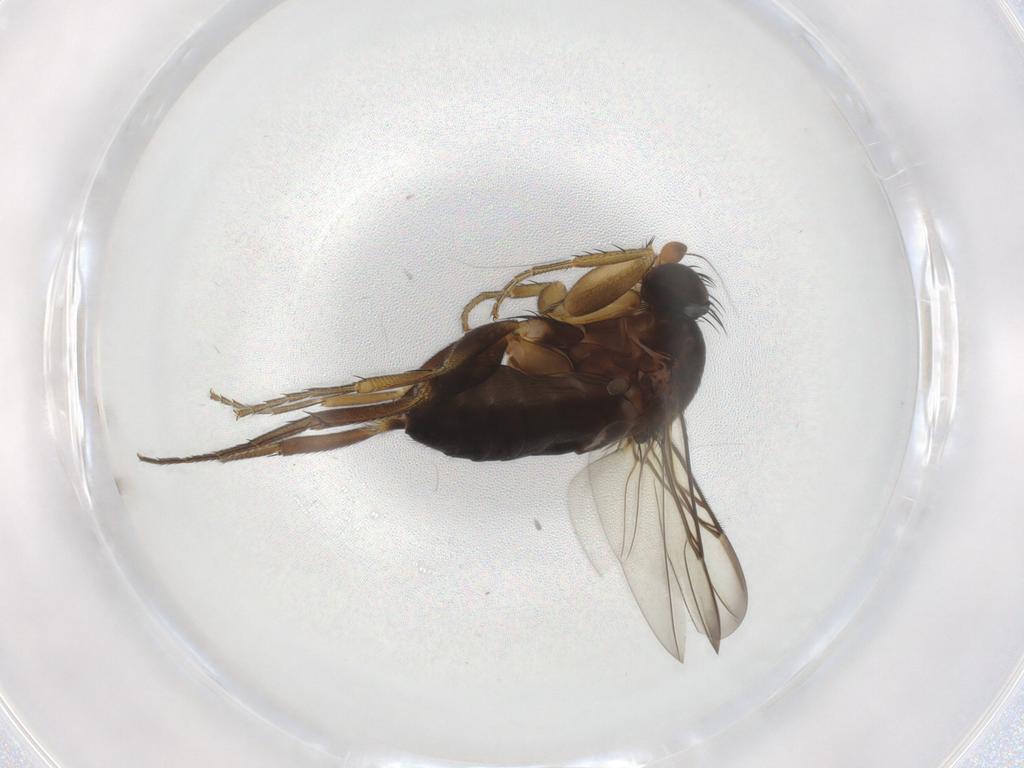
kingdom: Animalia
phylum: Arthropoda
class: Insecta
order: Diptera
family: Phoridae
